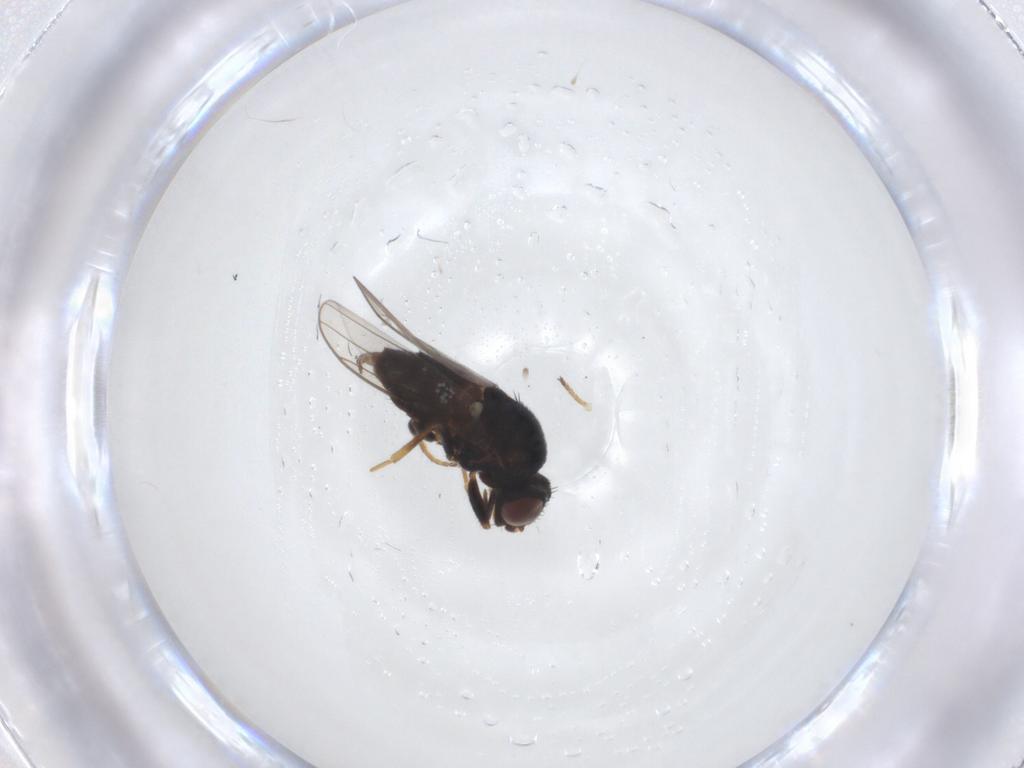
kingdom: Animalia
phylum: Arthropoda
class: Insecta
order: Diptera
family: Chloropidae
